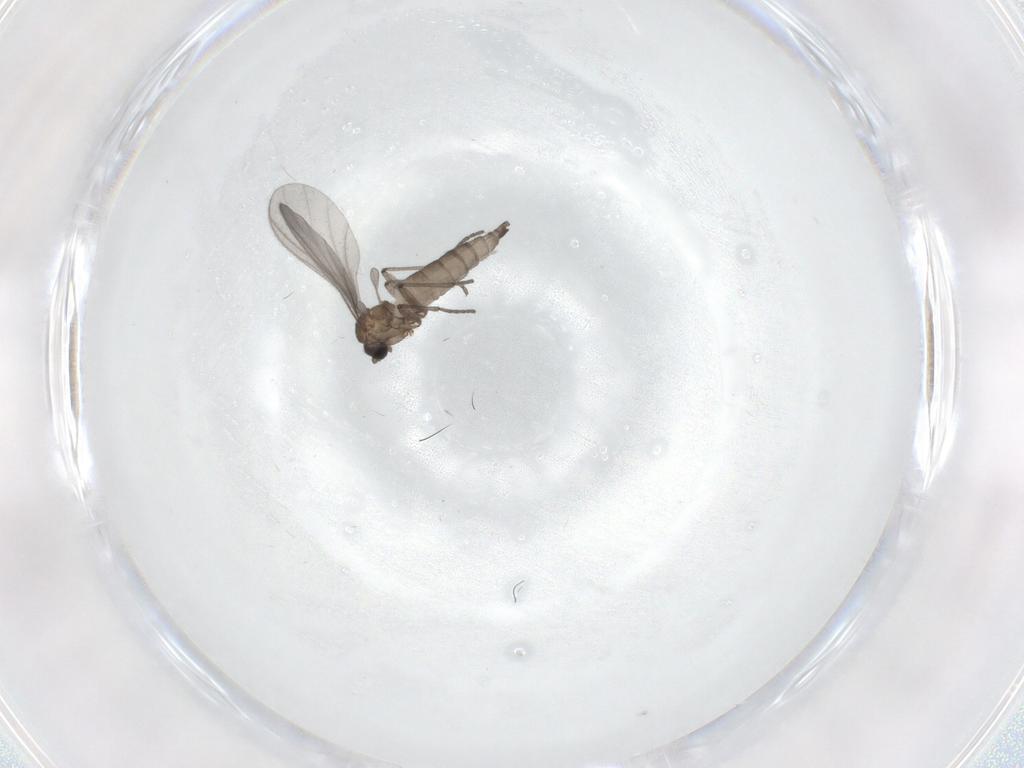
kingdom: Animalia
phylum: Arthropoda
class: Insecta
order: Diptera
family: Sciaridae
